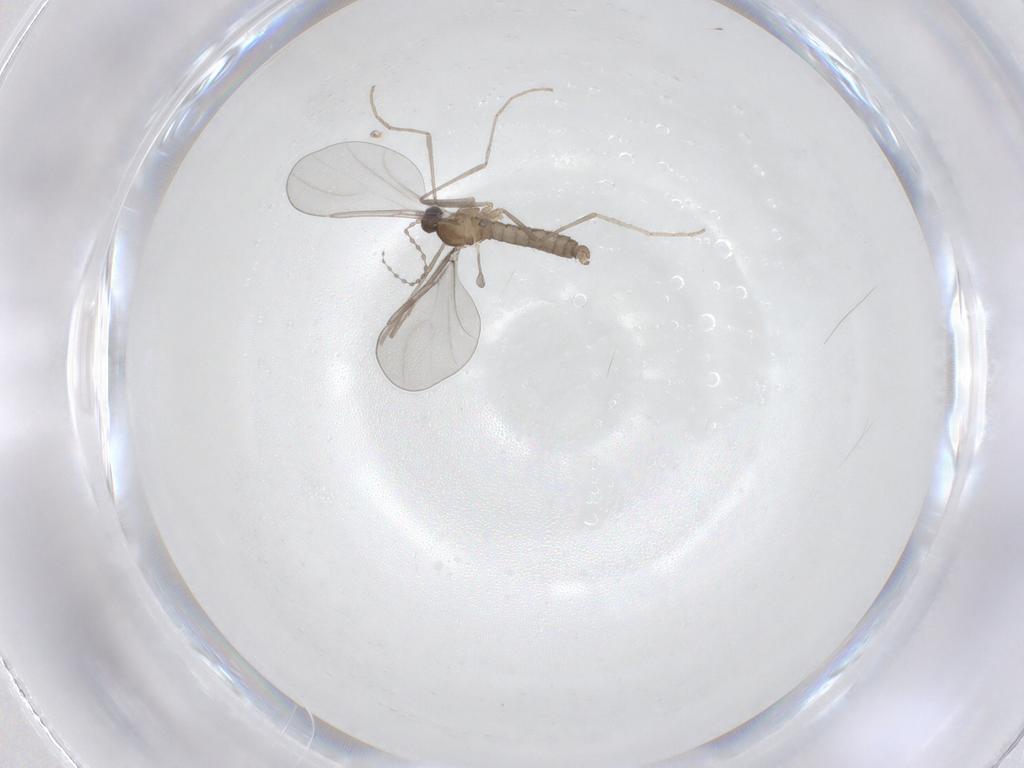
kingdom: Animalia
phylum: Arthropoda
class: Insecta
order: Diptera
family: Cecidomyiidae
